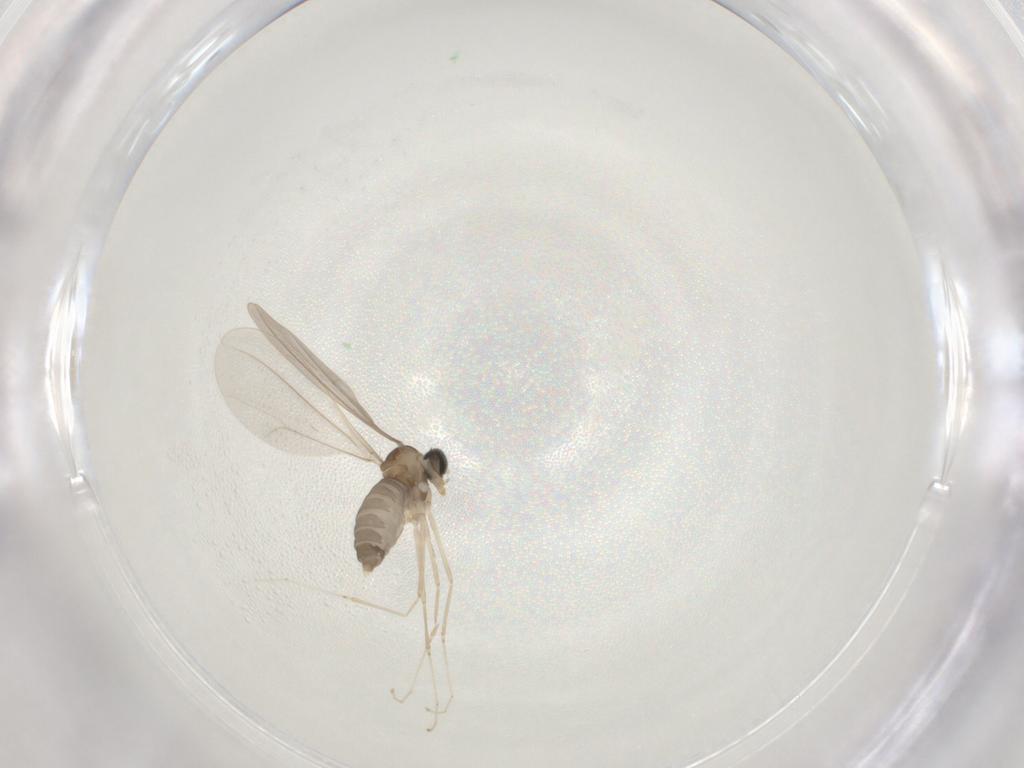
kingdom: Animalia
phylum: Arthropoda
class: Insecta
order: Diptera
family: Cecidomyiidae
